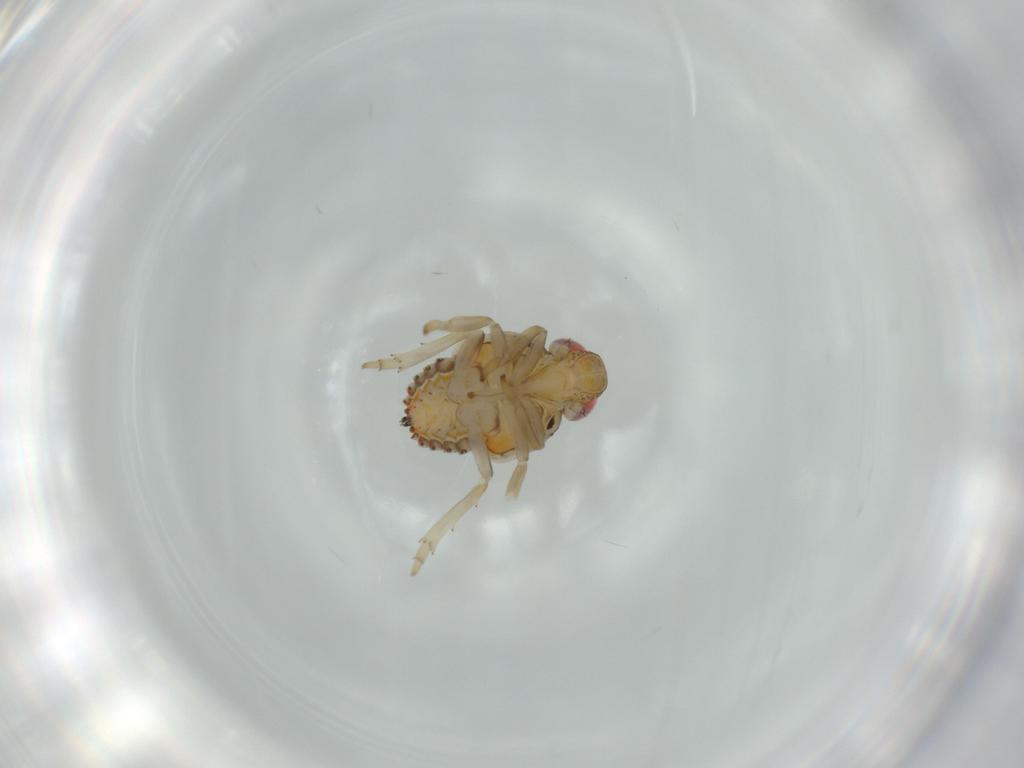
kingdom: Animalia
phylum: Arthropoda
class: Insecta
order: Hemiptera
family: Issidae
